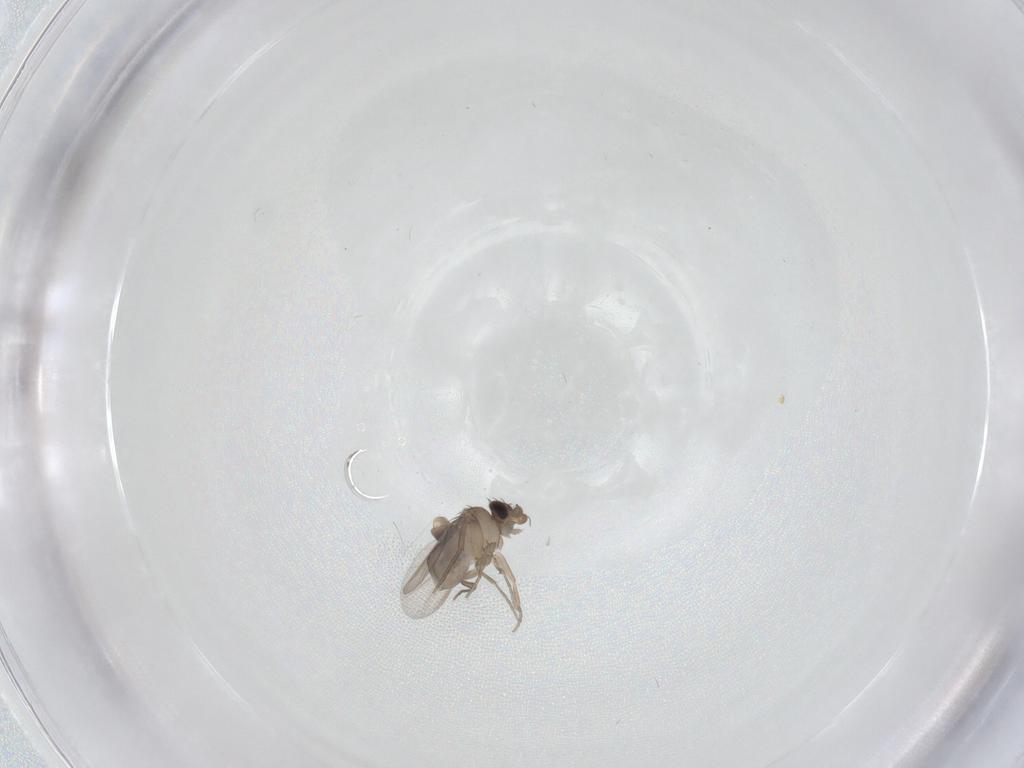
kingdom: Animalia
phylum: Arthropoda
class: Insecta
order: Diptera
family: Phoridae
